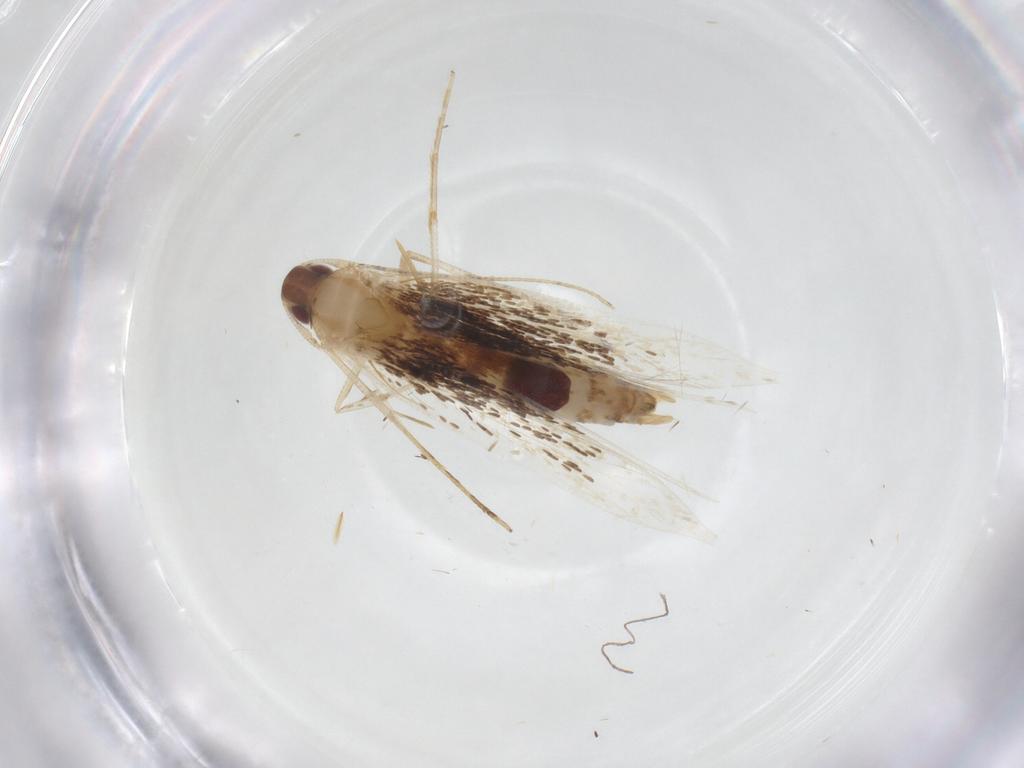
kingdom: Animalia
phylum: Arthropoda
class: Insecta
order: Lepidoptera
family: Cosmopterigidae
